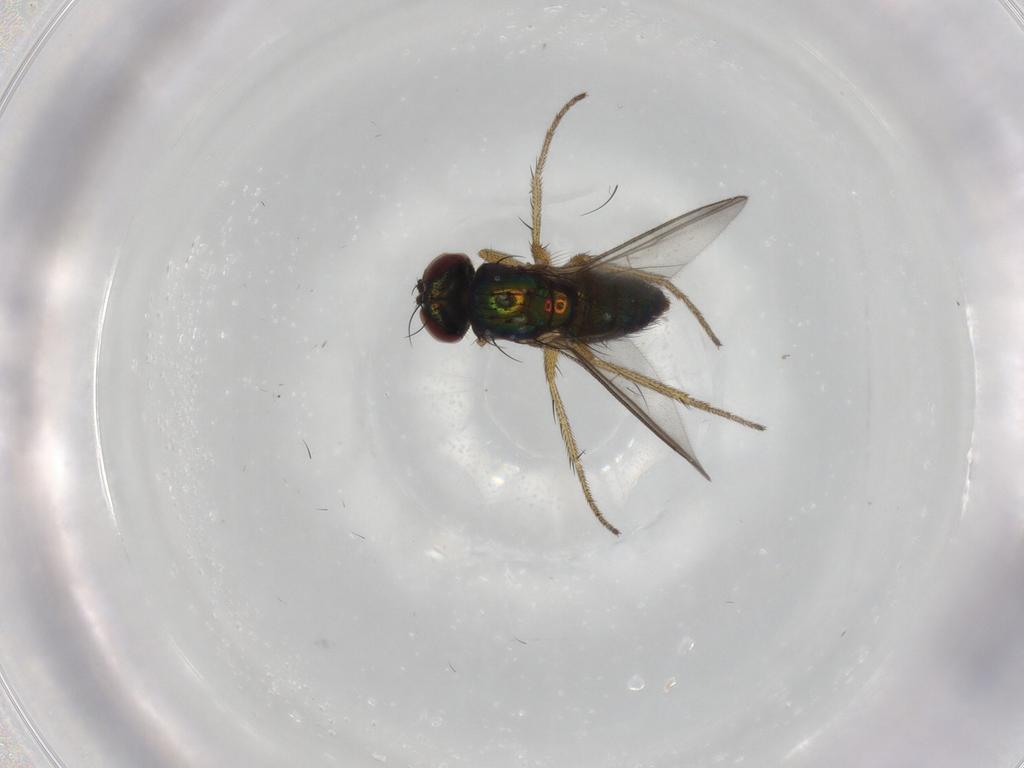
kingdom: Animalia
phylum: Arthropoda
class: Insecta
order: Diptera
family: Dolichopodidae
